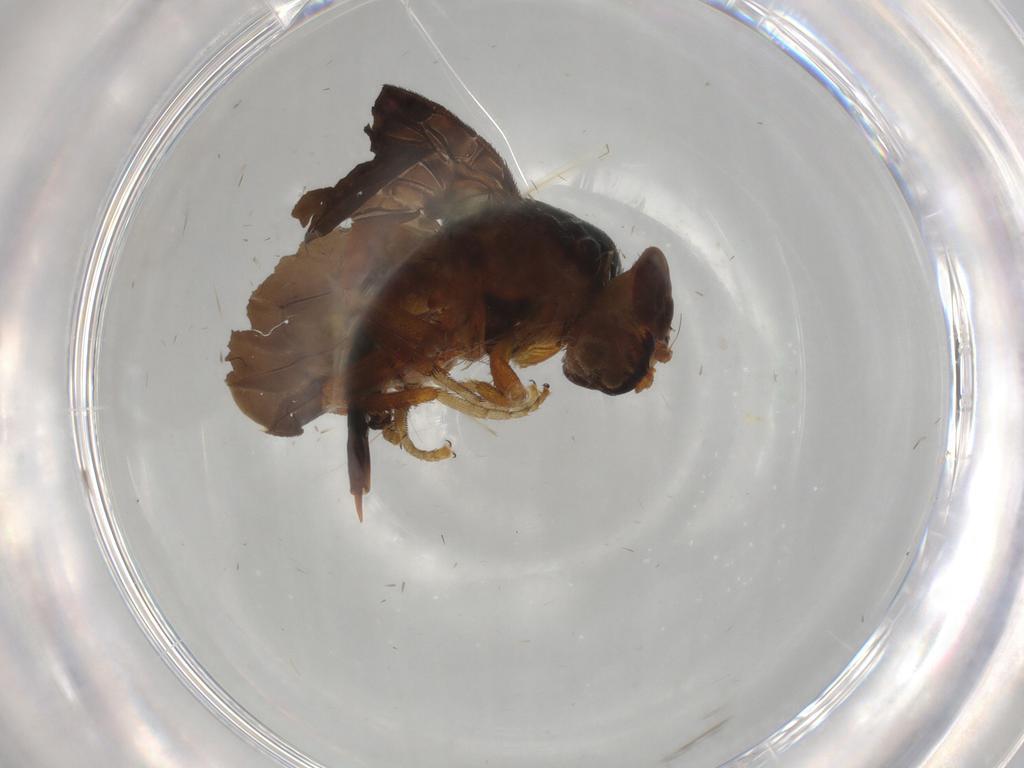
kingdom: Animalia
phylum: Arthropoda
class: Insecta
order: Diptera
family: Tephritidae
